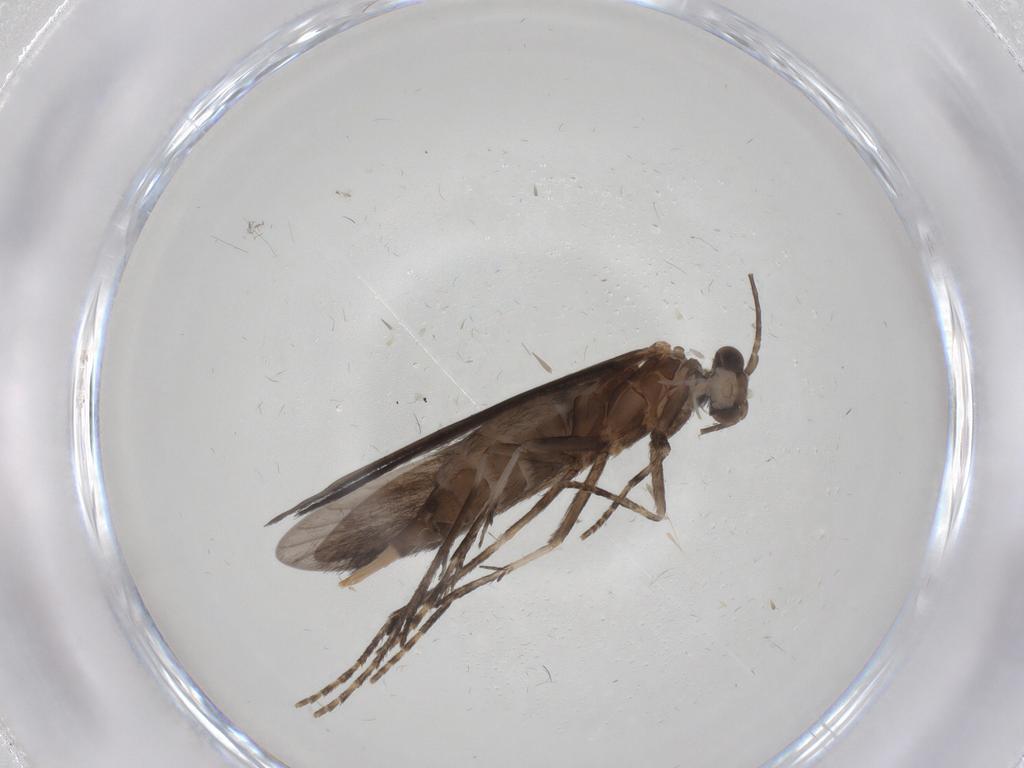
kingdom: Animalia
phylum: Arthropoda
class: Insecta
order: Trichoptera
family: Xiphocentronidae
